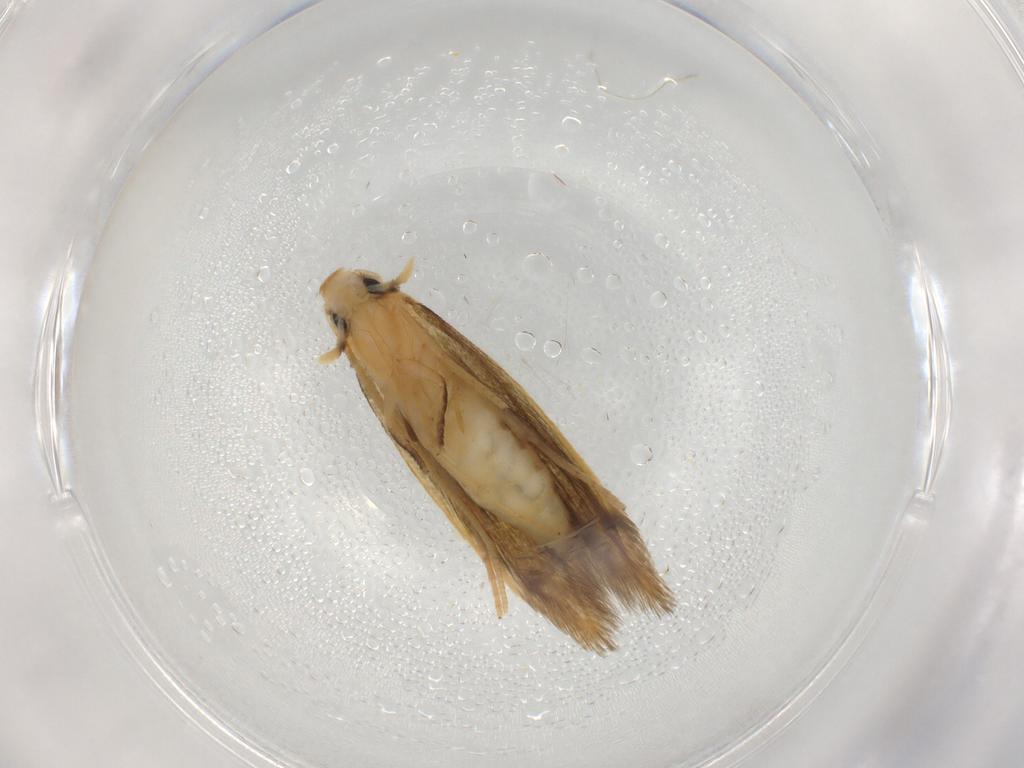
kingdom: Animalia
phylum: Arthropoda
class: Insecta
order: Lepidoptera
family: Tineidae
